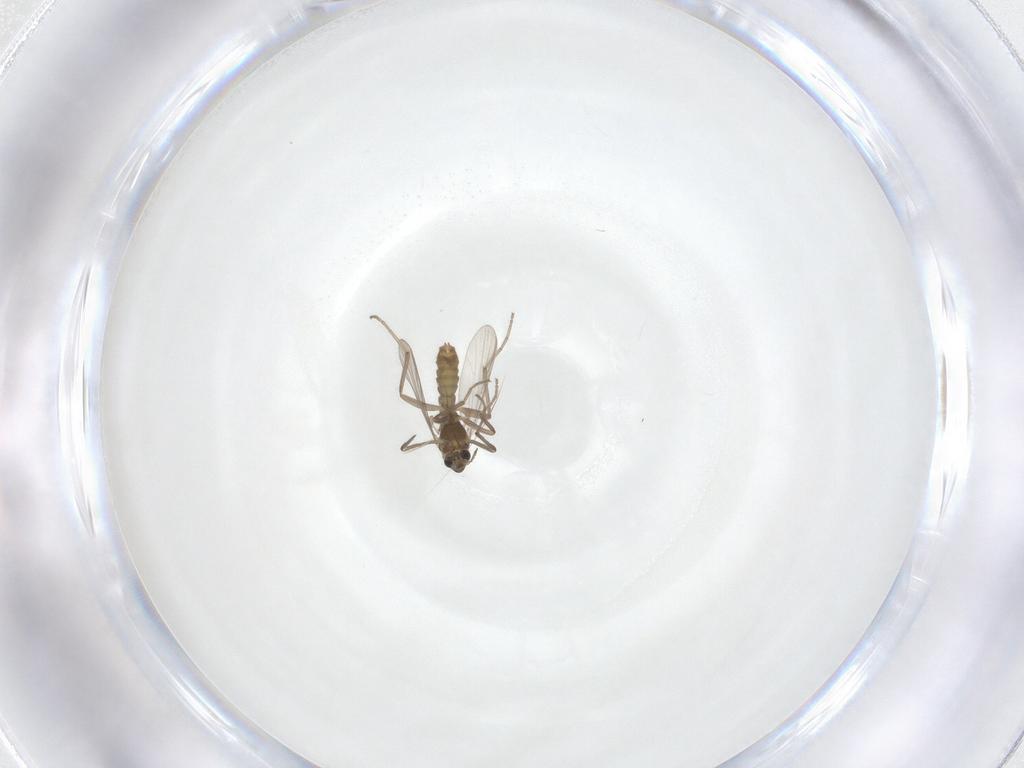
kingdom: Animalia
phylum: Arthropoda
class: Insecta
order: Diptera
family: Chironomidae
